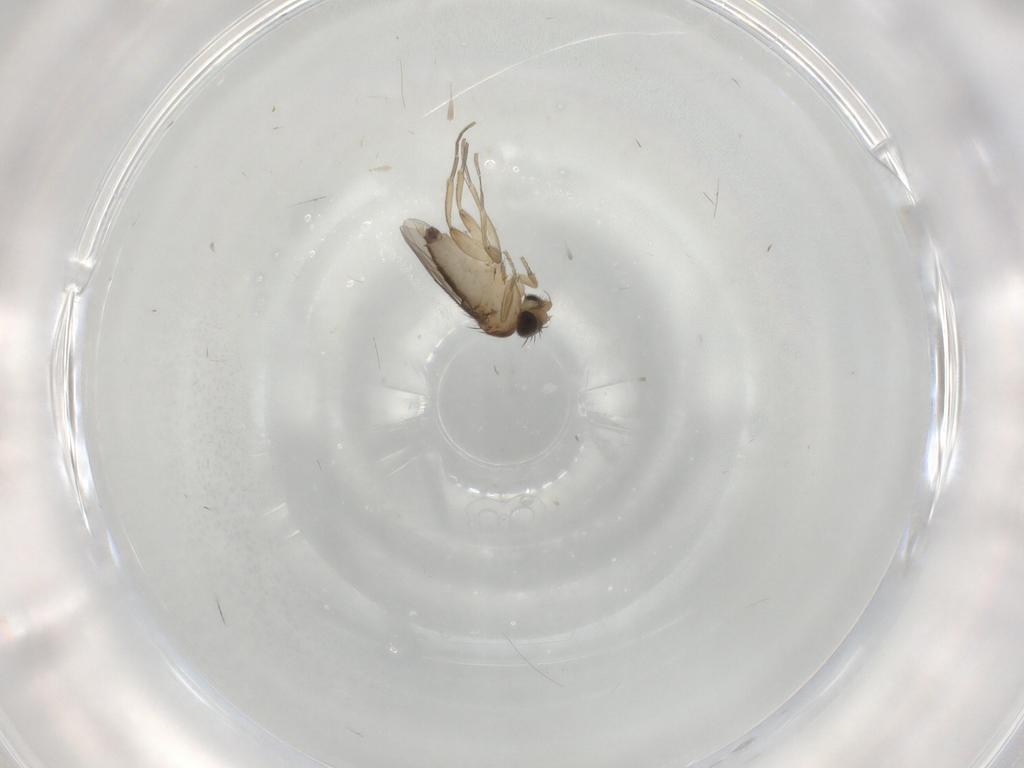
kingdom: Animalia
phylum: Arthropoda
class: Insecta
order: Diptera
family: Phoridae
